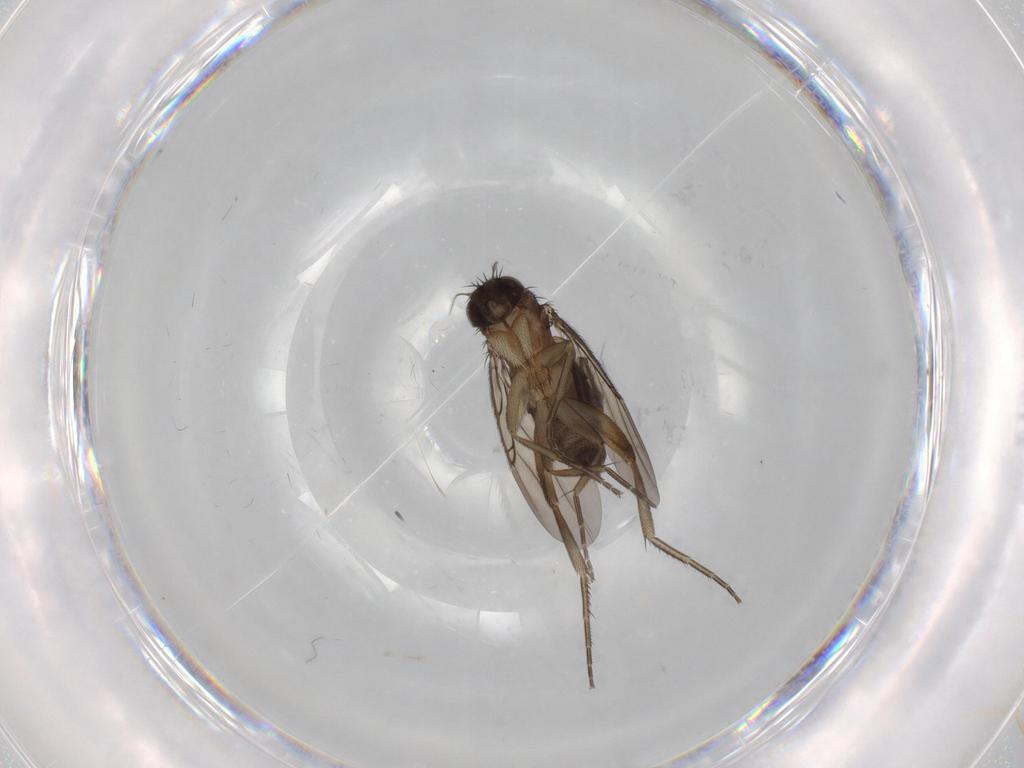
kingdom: Animalia
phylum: Arthropoda
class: Insecta
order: Diptera
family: Phoridae
